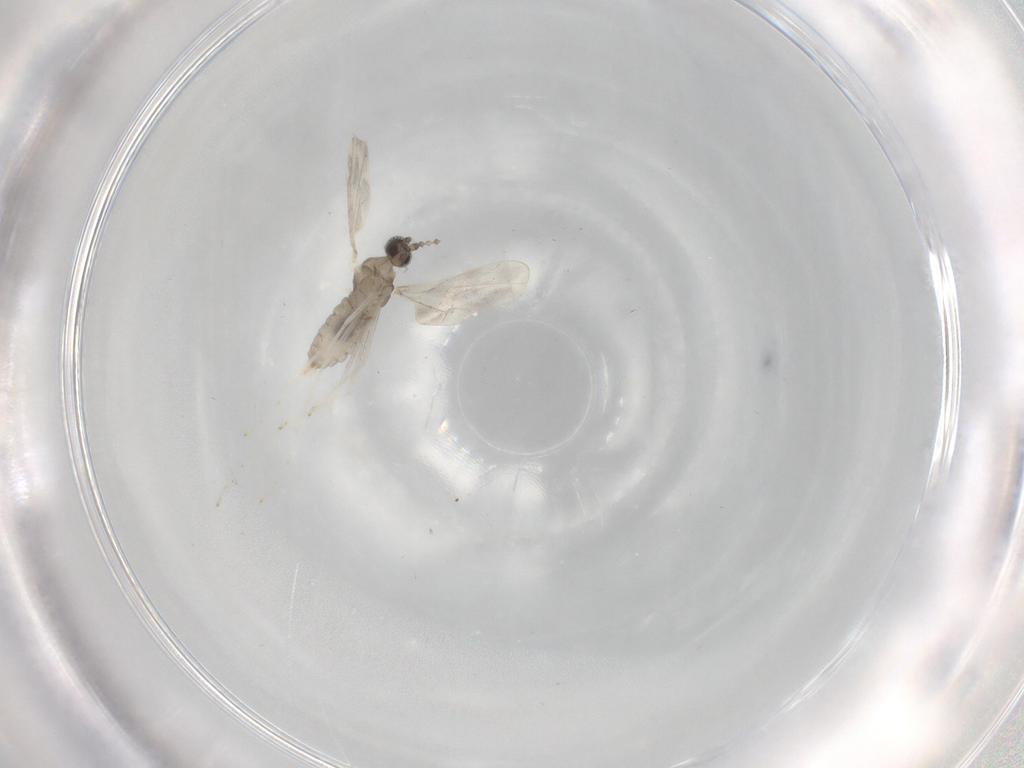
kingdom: Animalia
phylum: Arthropoda
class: Insecta
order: Diptera
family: Cecidomyiidae
